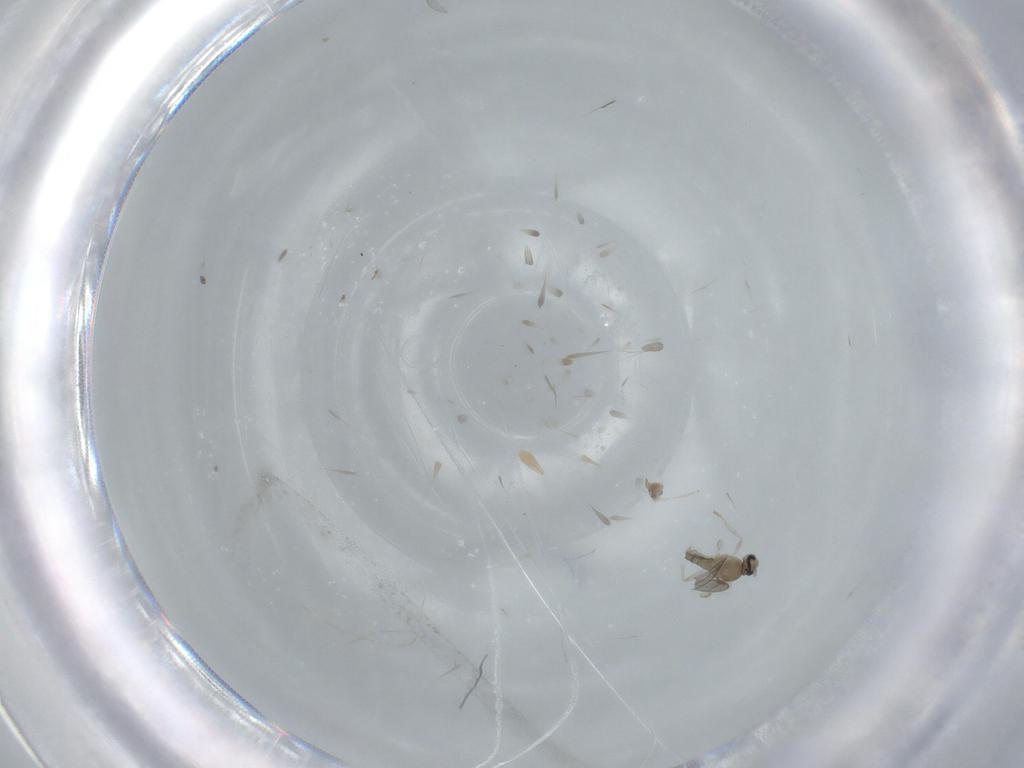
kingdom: Animalia
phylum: Arthropoda
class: Insecta
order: Diptera
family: Cecidomyiidae
